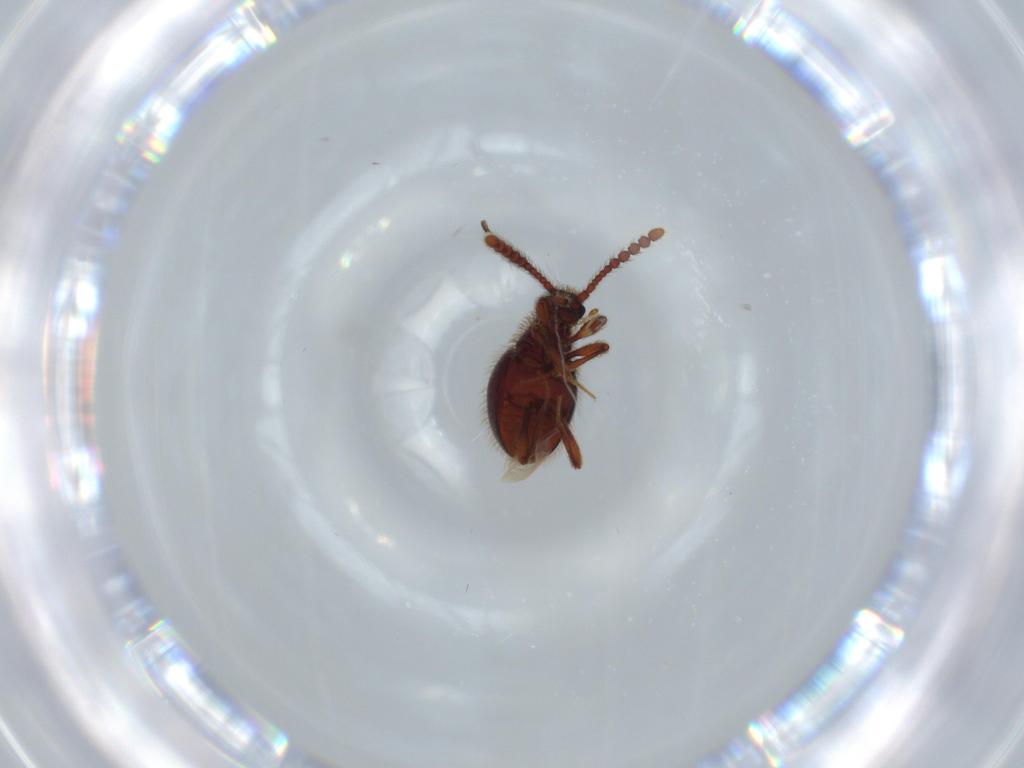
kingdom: Animalia
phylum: Arthropoda
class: Insecta
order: Coleoptera
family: Staphylinidae
